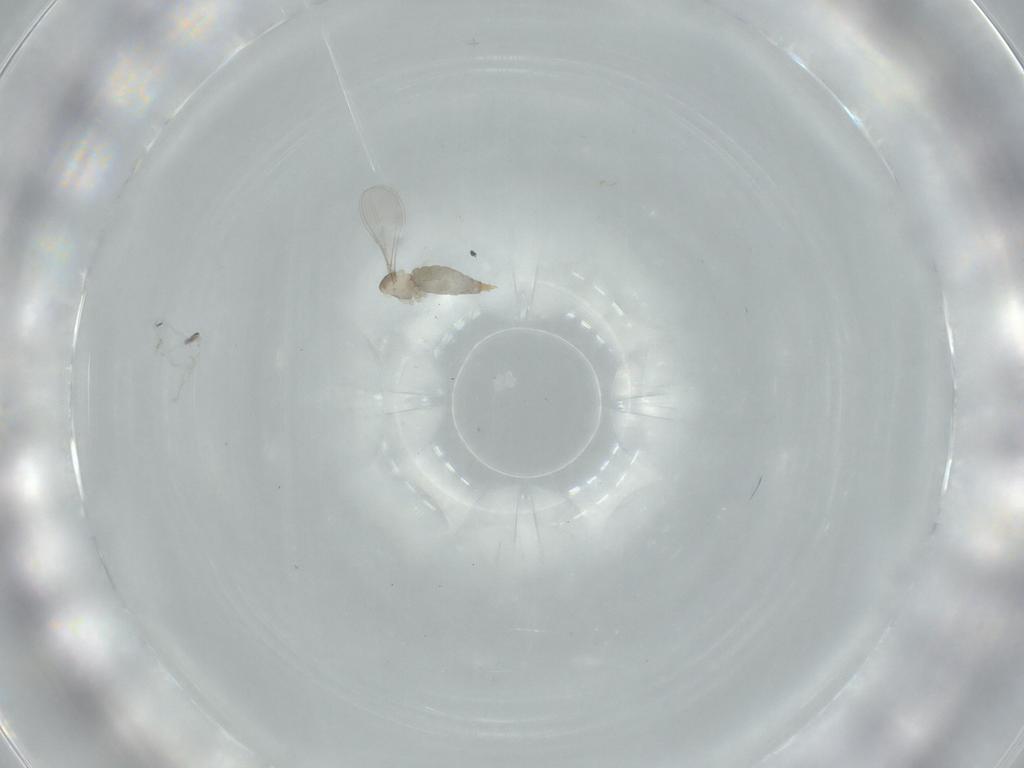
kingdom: Animalia
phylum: Arthropoda
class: Insecta
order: Diptera
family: Cecidomyiidae
